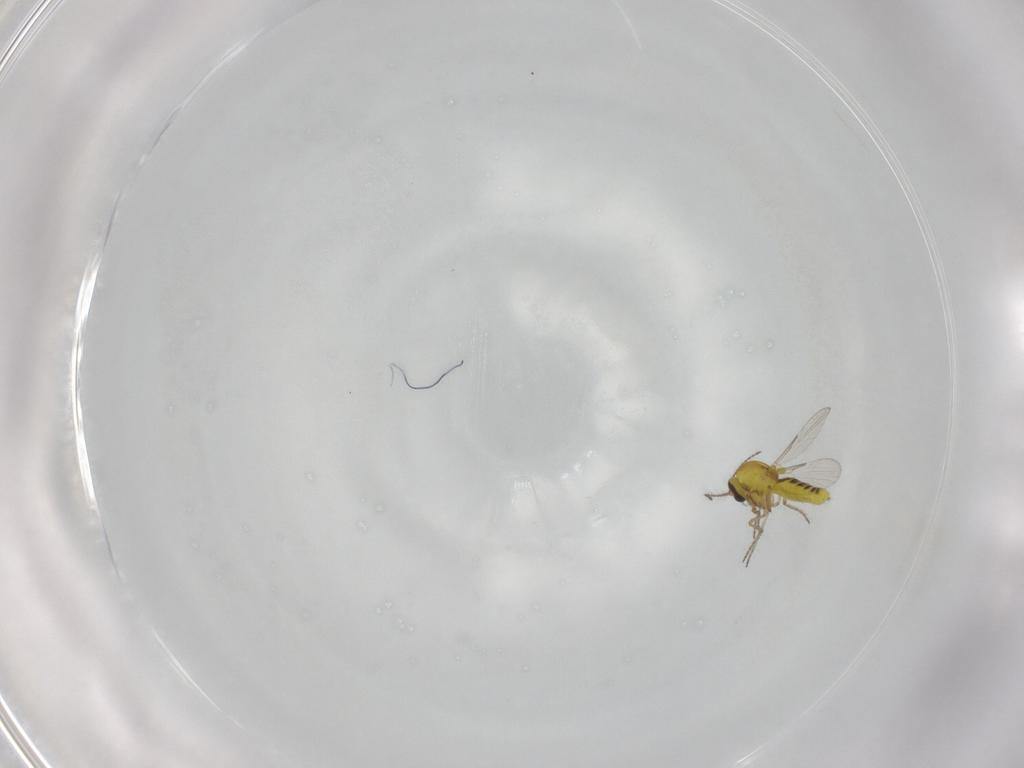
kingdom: Animalia
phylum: Arthropoda
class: Insecta
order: Diptera
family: Ceratopogonidae
